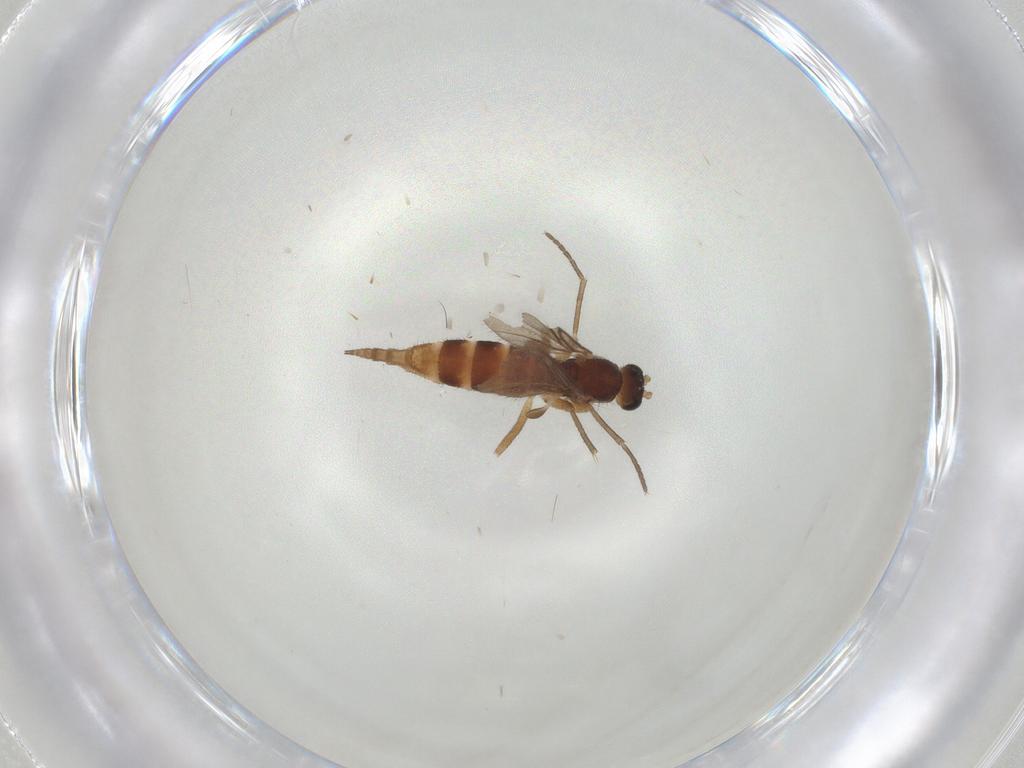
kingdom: Animalia
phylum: Arthropoda
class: Insecta
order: Diptera
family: Sciaridae
